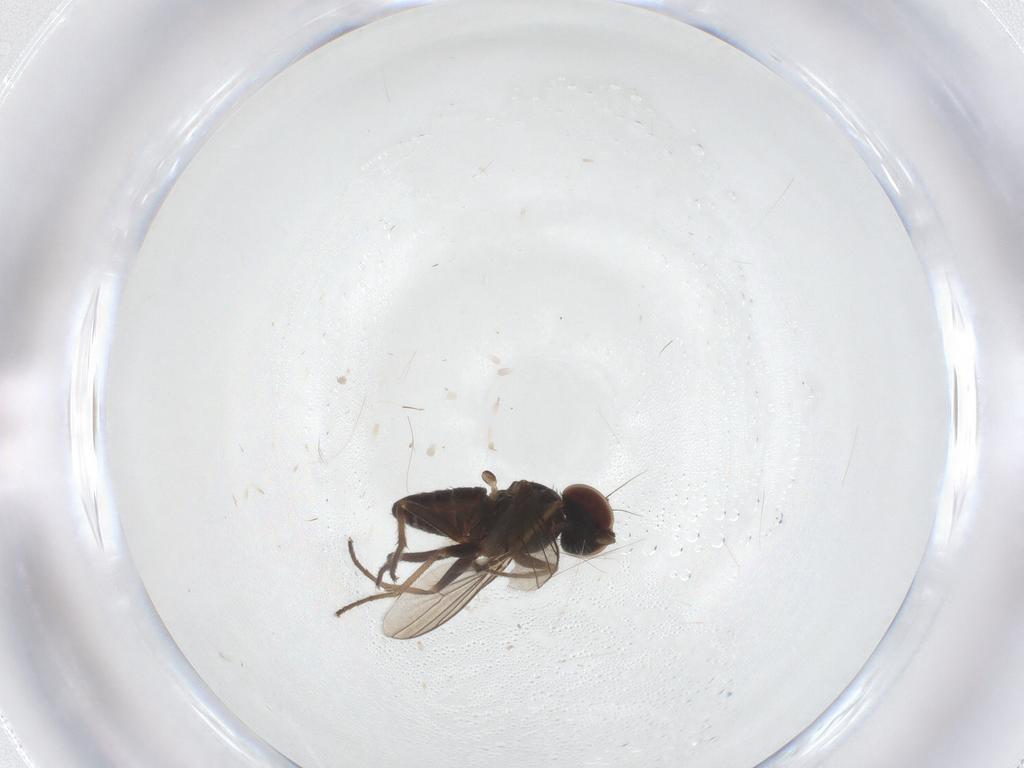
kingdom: Animalia
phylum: Arthropoda
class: Insecta
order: Diptera
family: Dolichopodidae
